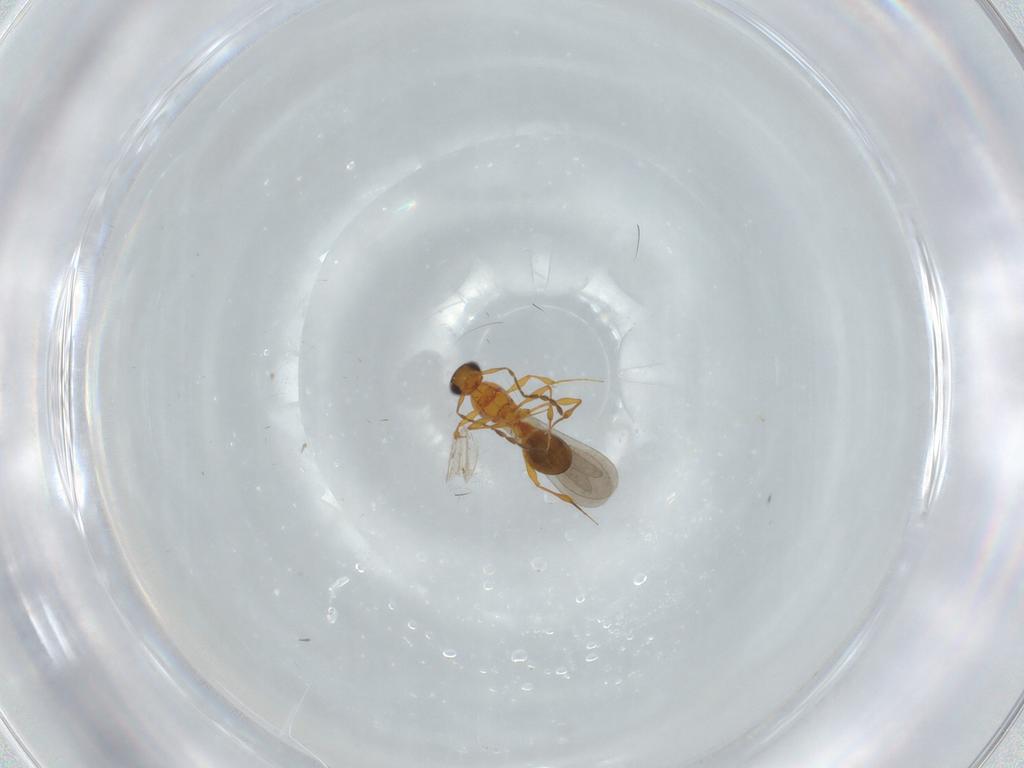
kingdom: Animalia
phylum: Arthropoda
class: Insecta
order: Hymenoptera
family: Platygastridae
